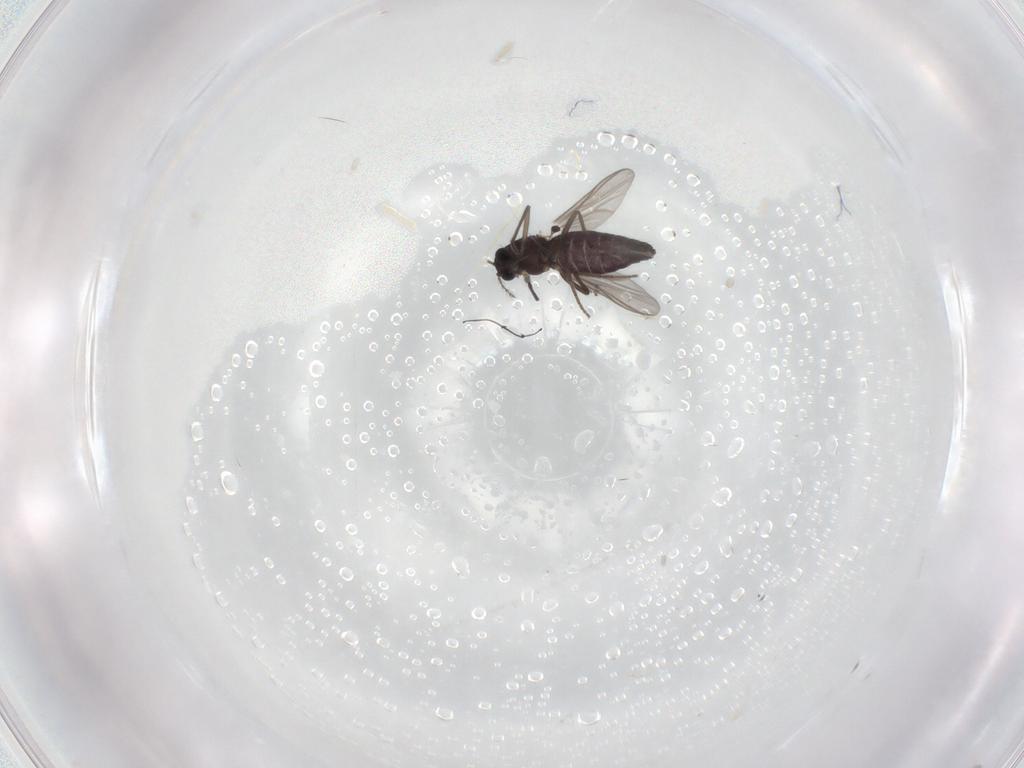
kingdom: Animalia
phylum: Arthropoda
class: Insecta
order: Diptera
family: Chironomidae
